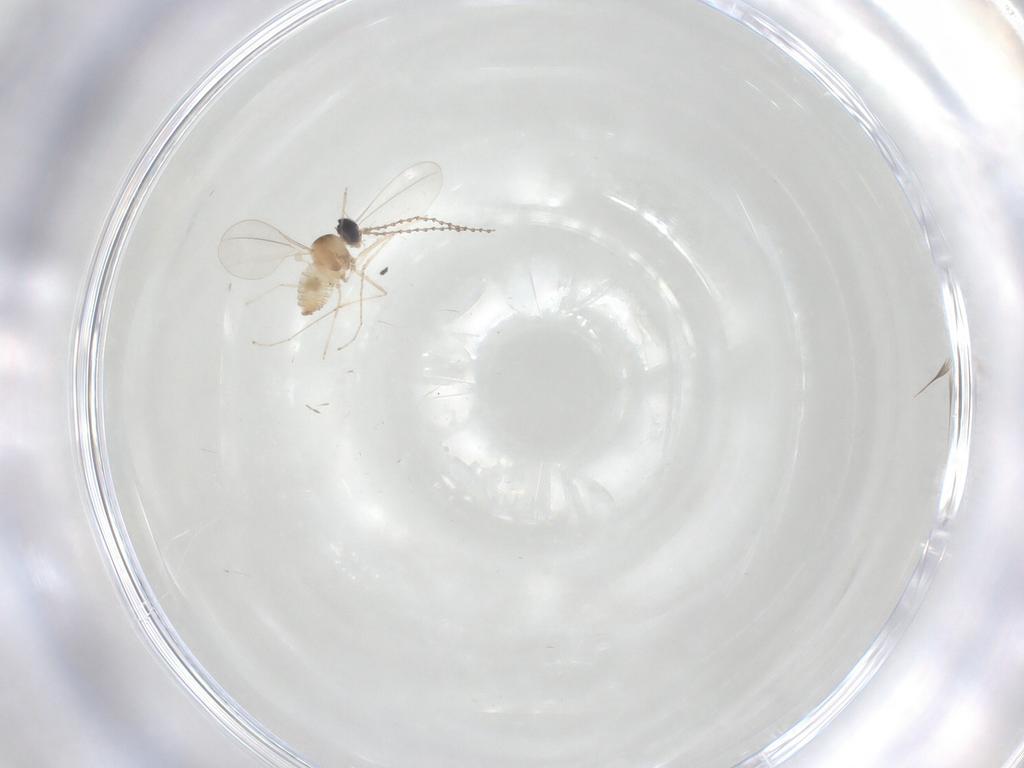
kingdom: Animalia
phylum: Arthropoda
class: Insecta
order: Diptera
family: Cecidomyiidae
